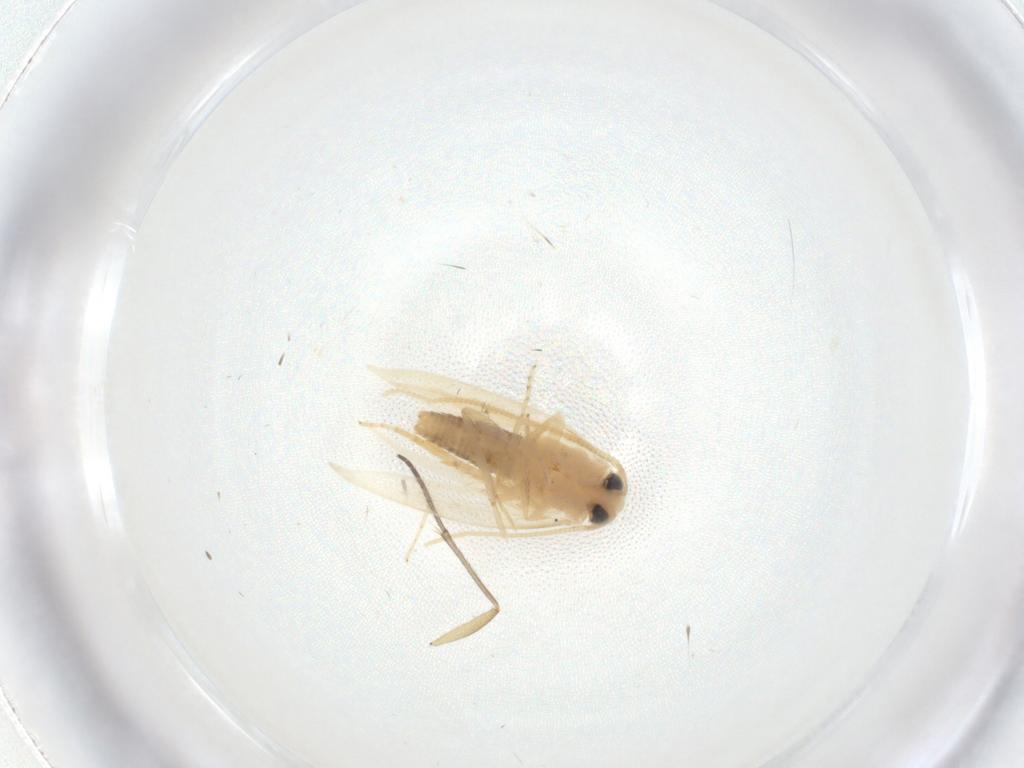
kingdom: Animalia
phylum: Arthropoda
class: Insecta
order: Lepidoptera
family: Opostegidae
